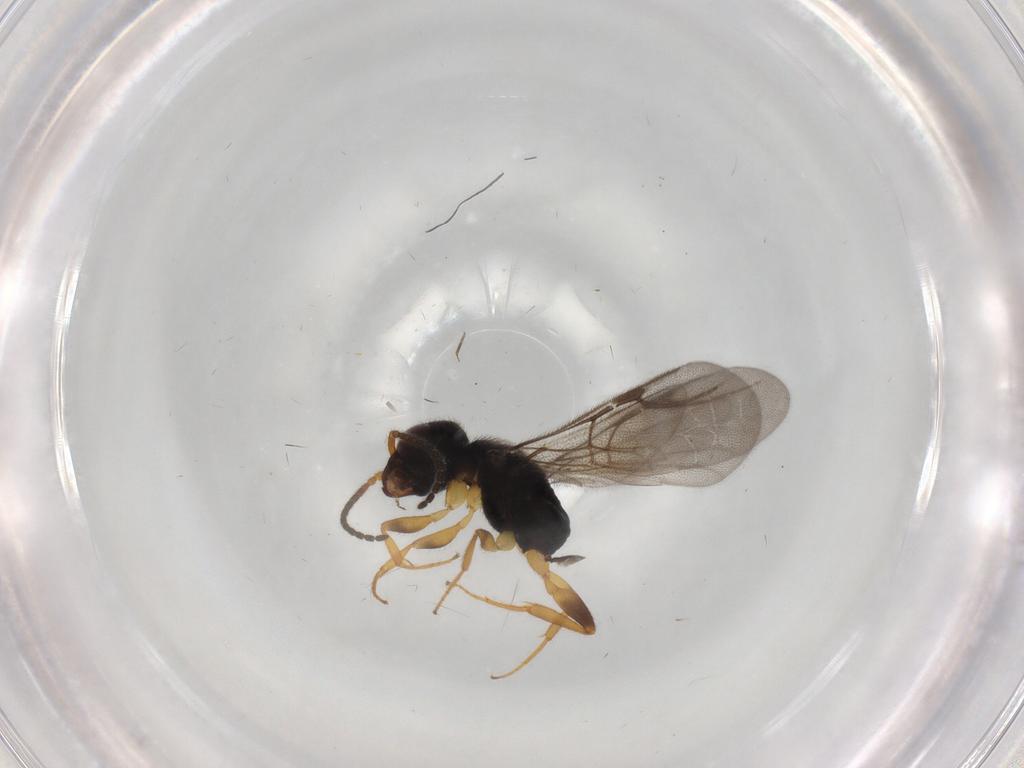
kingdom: Animalia
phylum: Arthropoda
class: Insecta
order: Hymenoptera
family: Bethylidae
